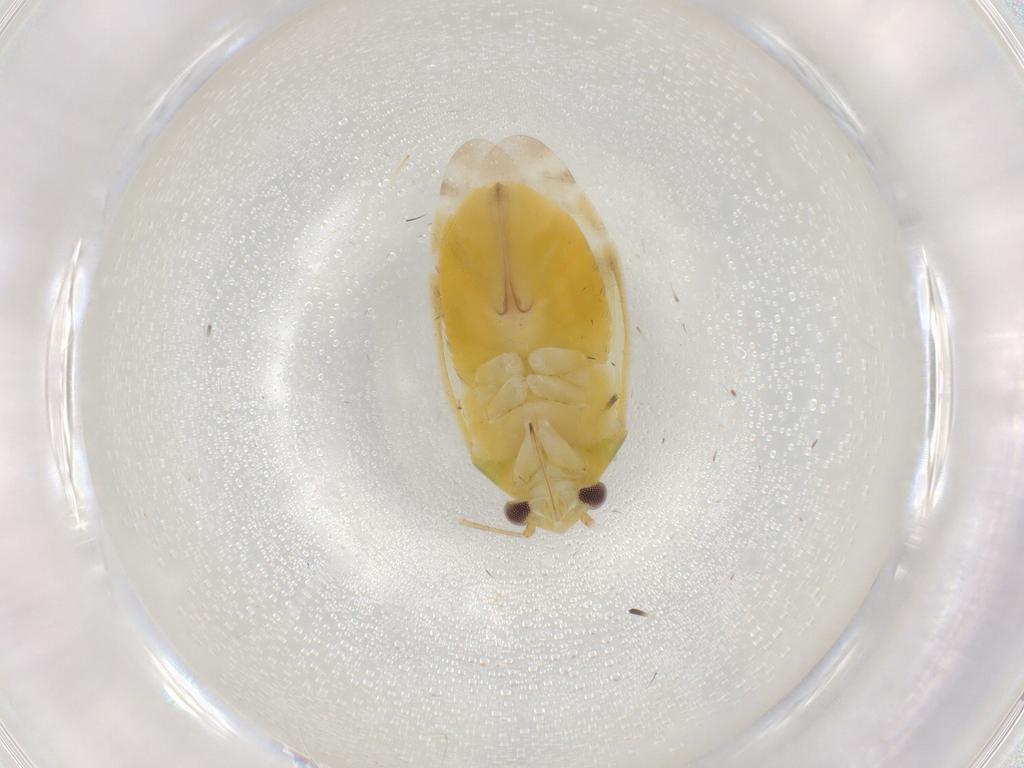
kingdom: Animalia
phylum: Arthropoda
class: Insecta
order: Hemiptera
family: Miridae
